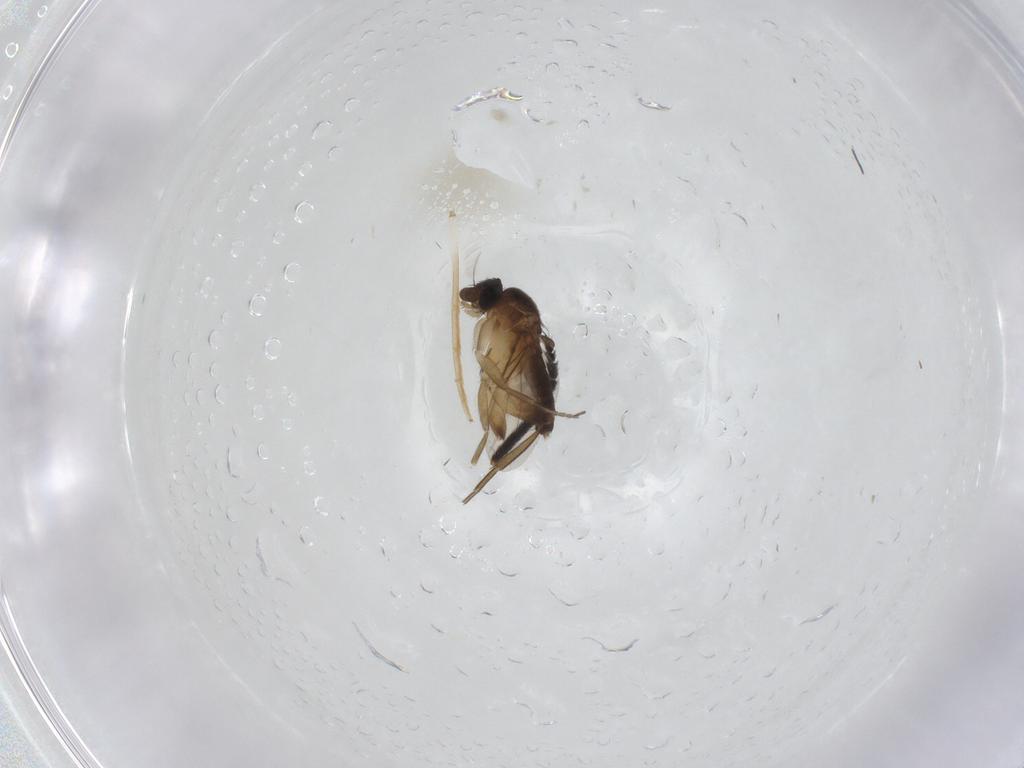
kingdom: Animalia
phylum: Arthropoda
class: Insecta
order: Diptera
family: Phoridae
